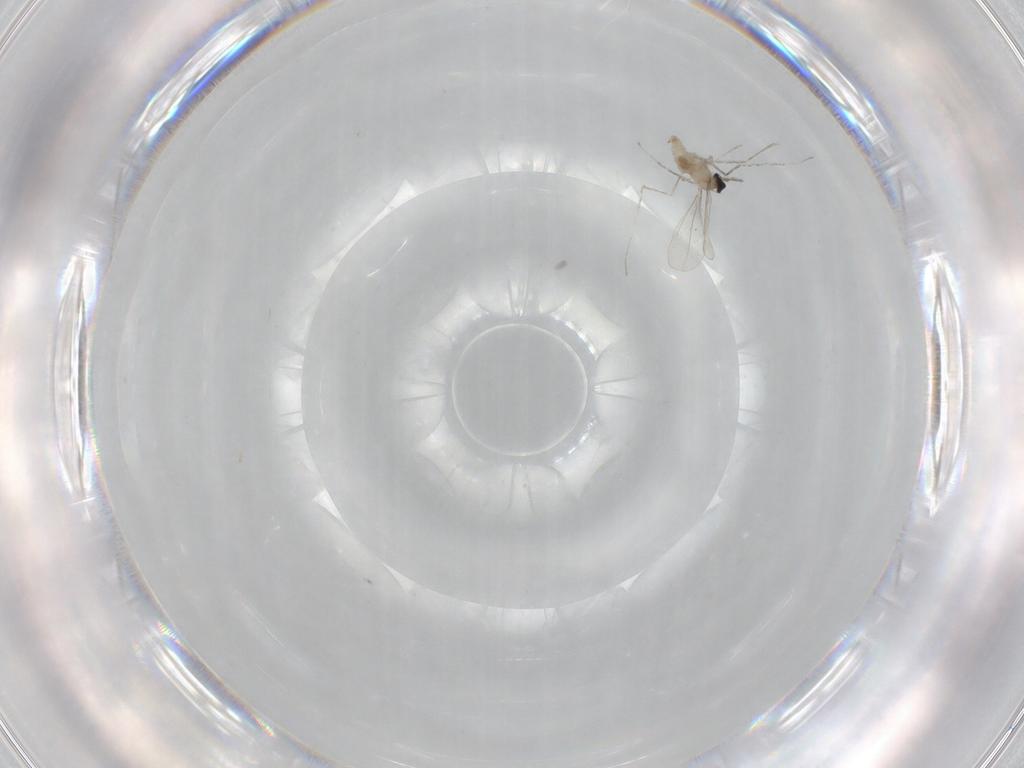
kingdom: Animalia
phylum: Arthropoda
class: Insecta
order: Diptera
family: Cecidomyiidae
